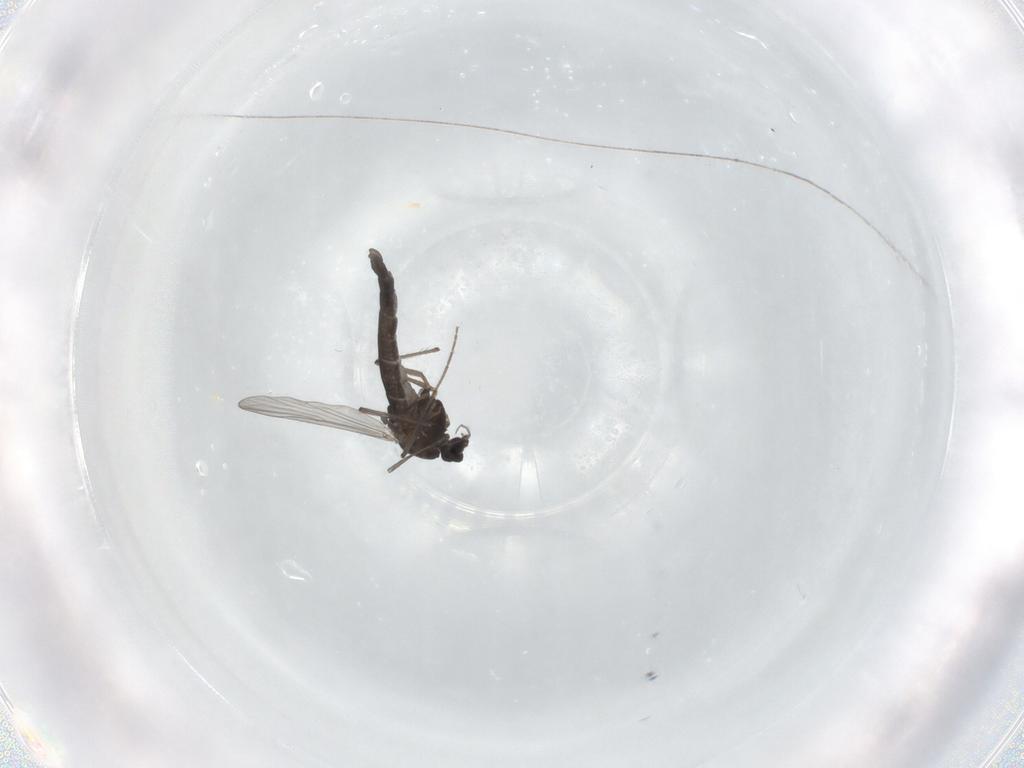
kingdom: Animalia
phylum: Arthropoda
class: Insecta
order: Diptera
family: Chironomidae
